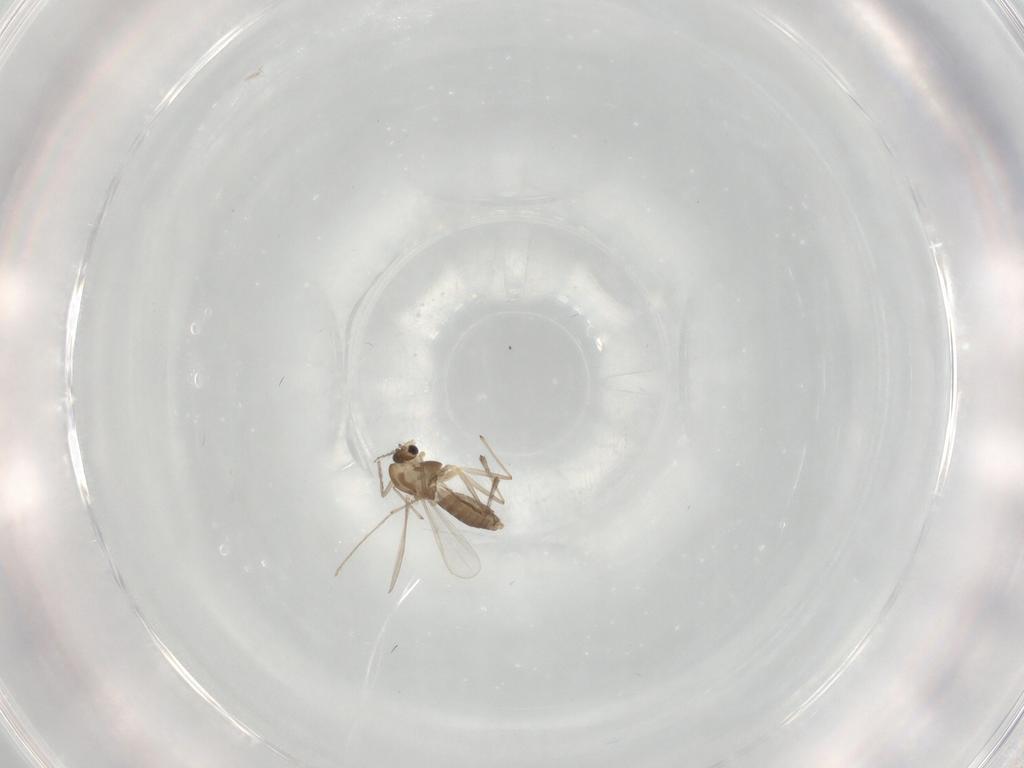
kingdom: Animalia
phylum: Arthropoda
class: Insecta
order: Diptera
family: Chironomidae
